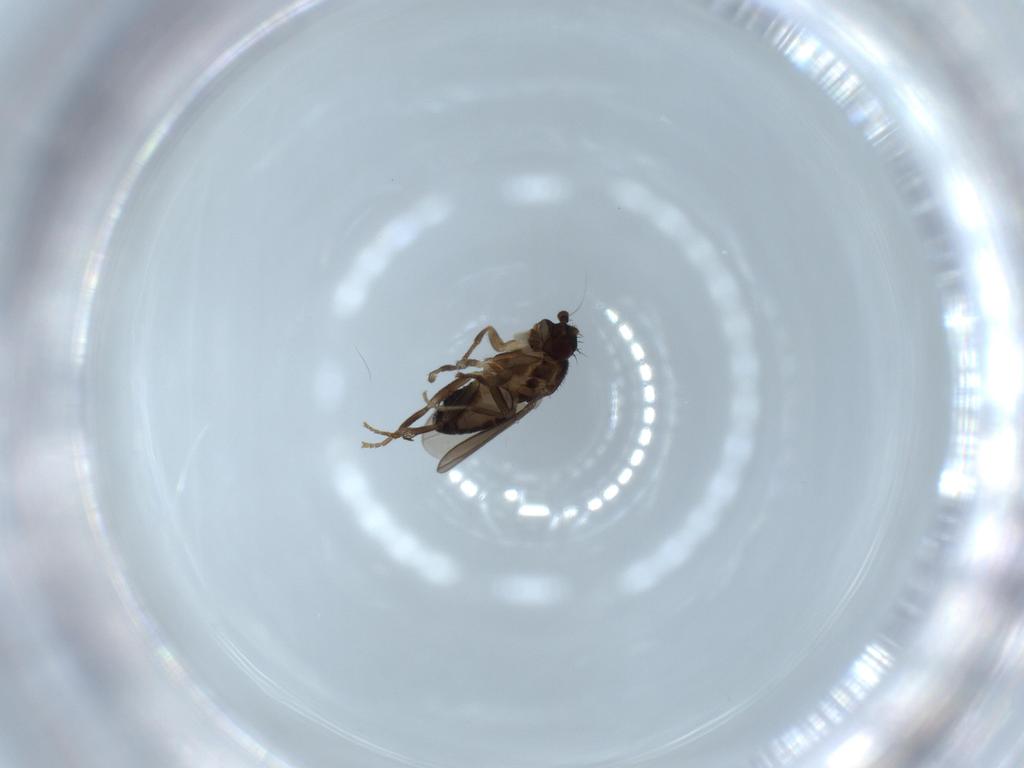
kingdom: Animalia
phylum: Arthropoda
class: Insecta
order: Diptera
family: Sphaeroceridae
